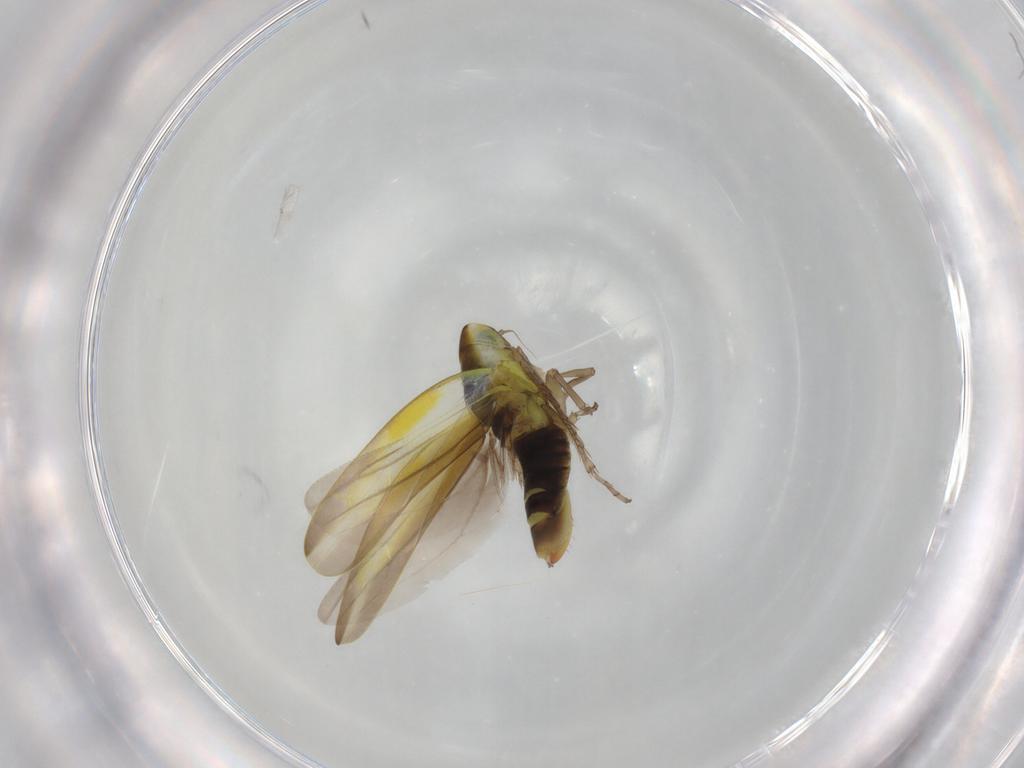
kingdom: Animalia
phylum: Arthropoda
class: Insecta
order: Hemiptera
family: Cicadellidae
